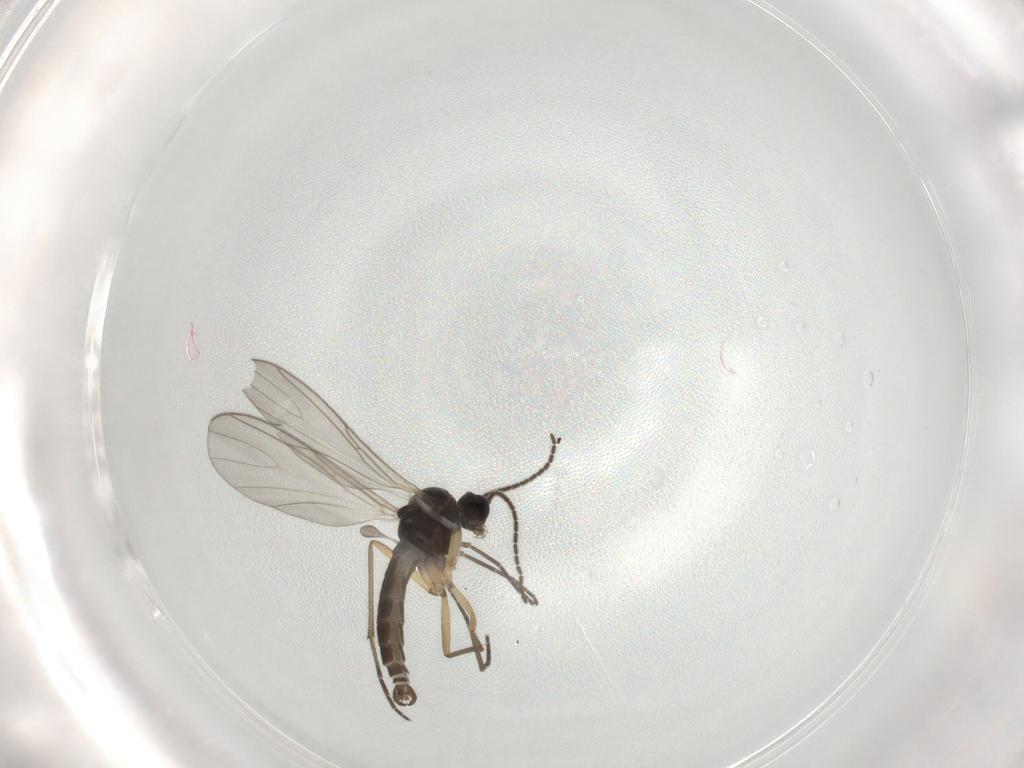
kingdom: Animalia
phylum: Arthropoda
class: Insecta
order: Diptera
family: Sciaridae
